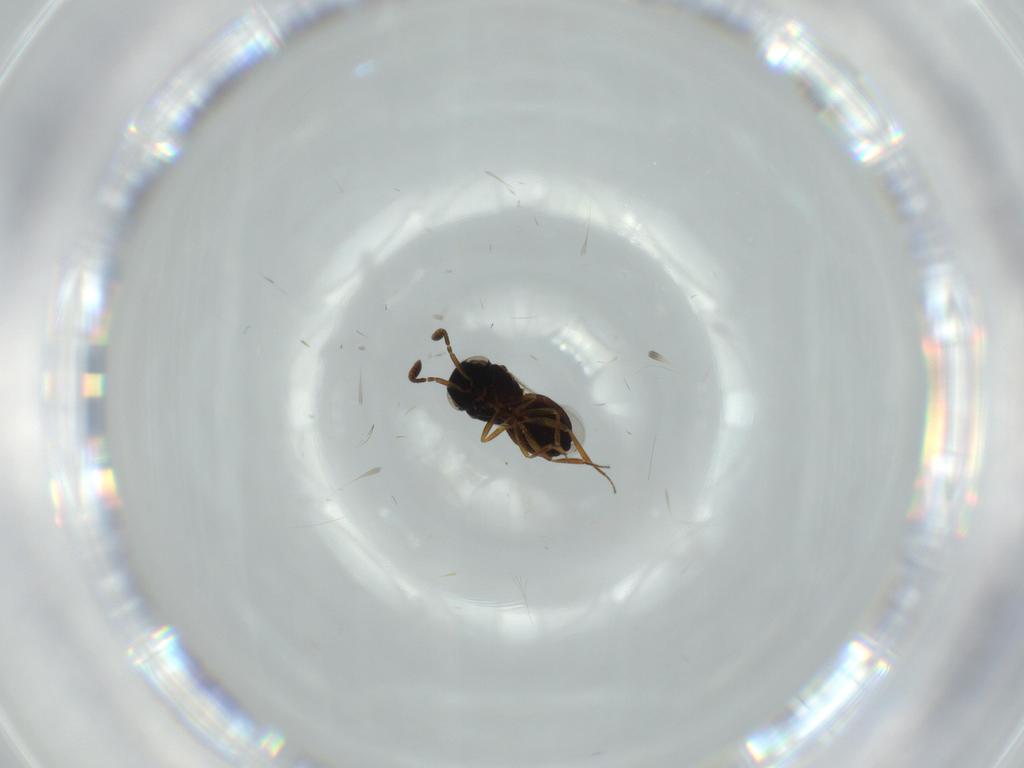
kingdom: Animalia
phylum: Arthropoda
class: Insecta
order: Hymenoptera
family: Scelionidae
